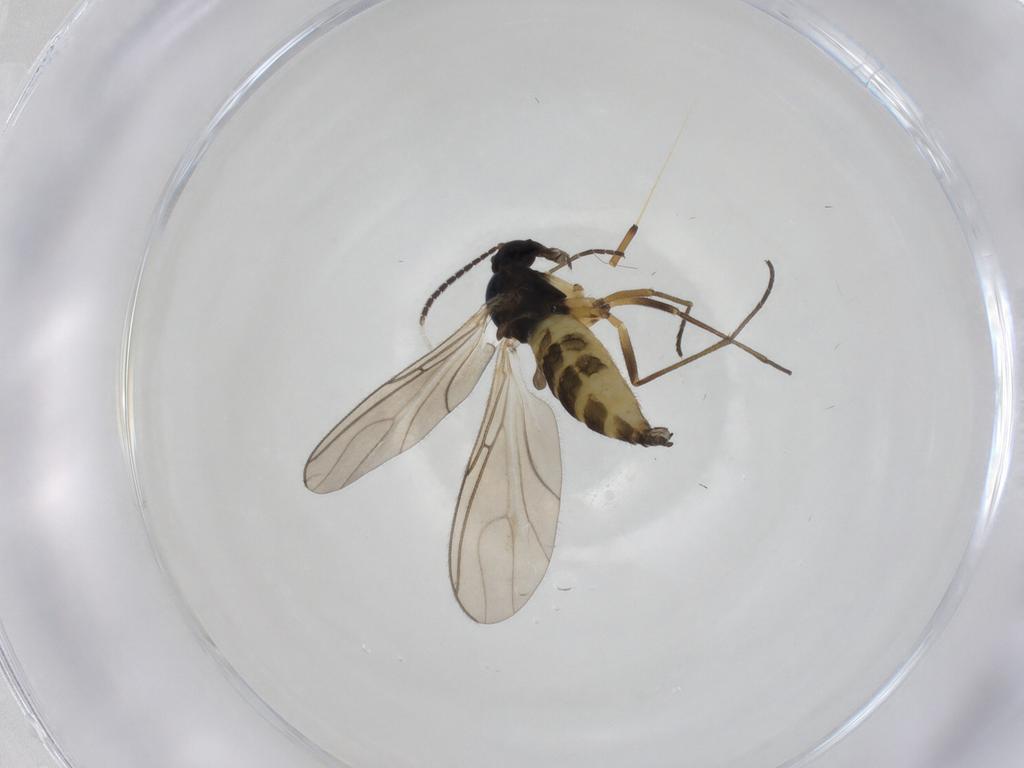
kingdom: Animalia
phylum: Arthropoda
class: Insecta
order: Diptera
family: Sciaridae
